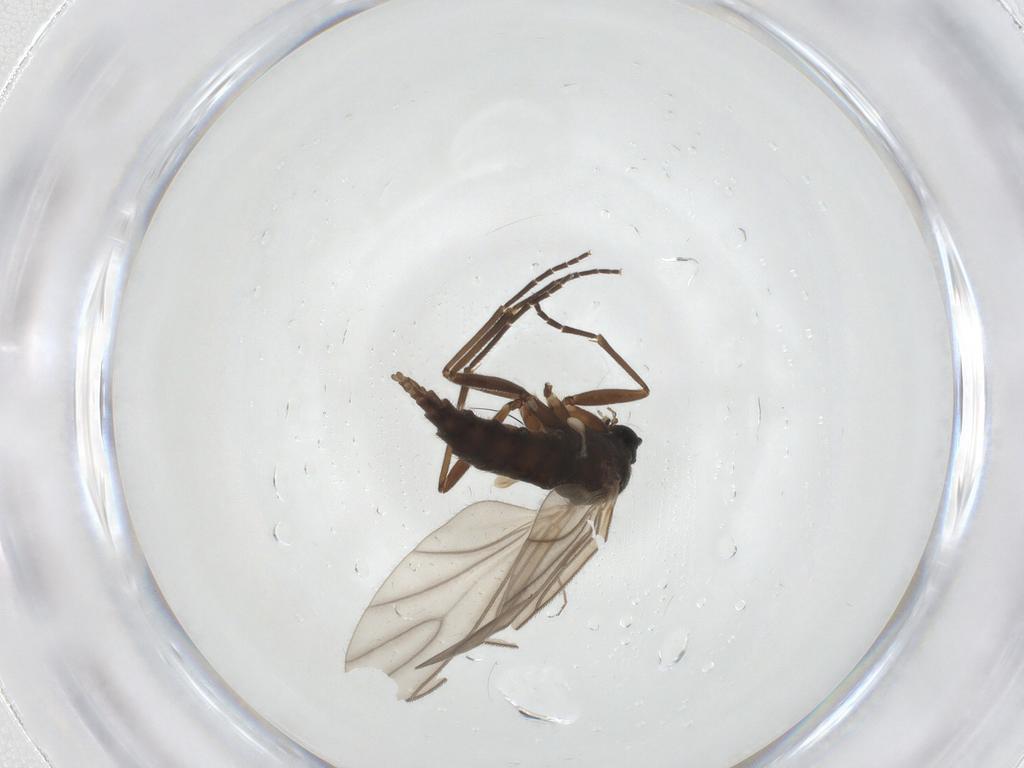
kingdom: Animalia
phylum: Arthropoda
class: Insecta
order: Diptera
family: Sciaridae
